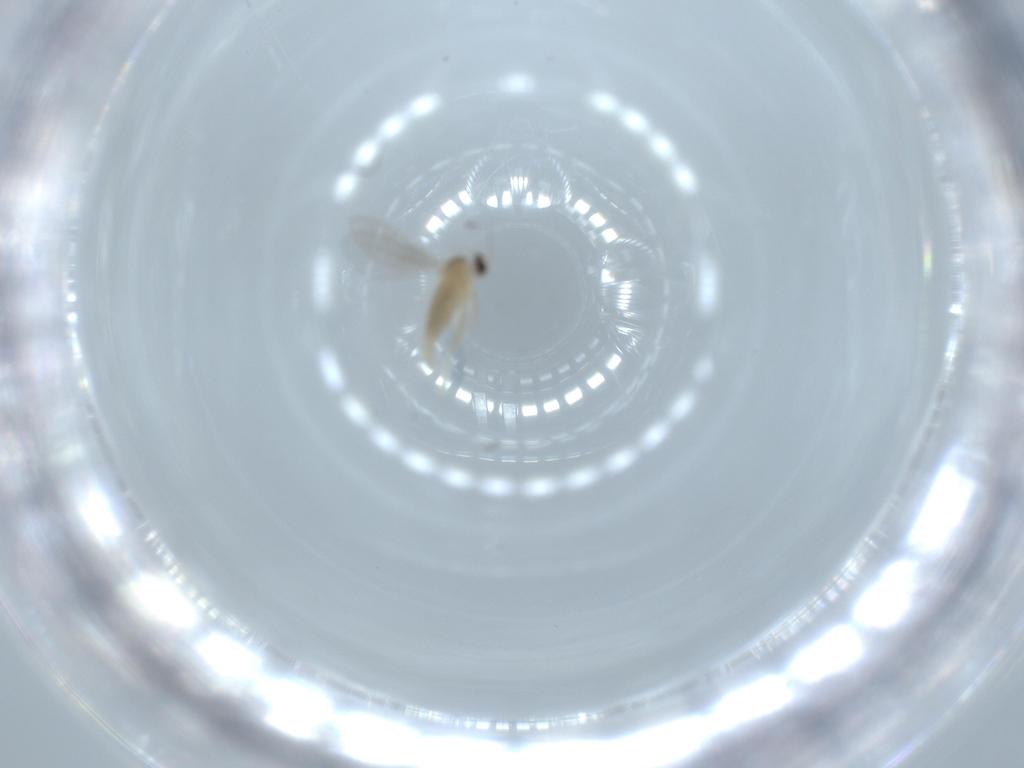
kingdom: Animalia
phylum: Arthropoda
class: Insecta
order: Diptera
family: Cecidomyiidae
